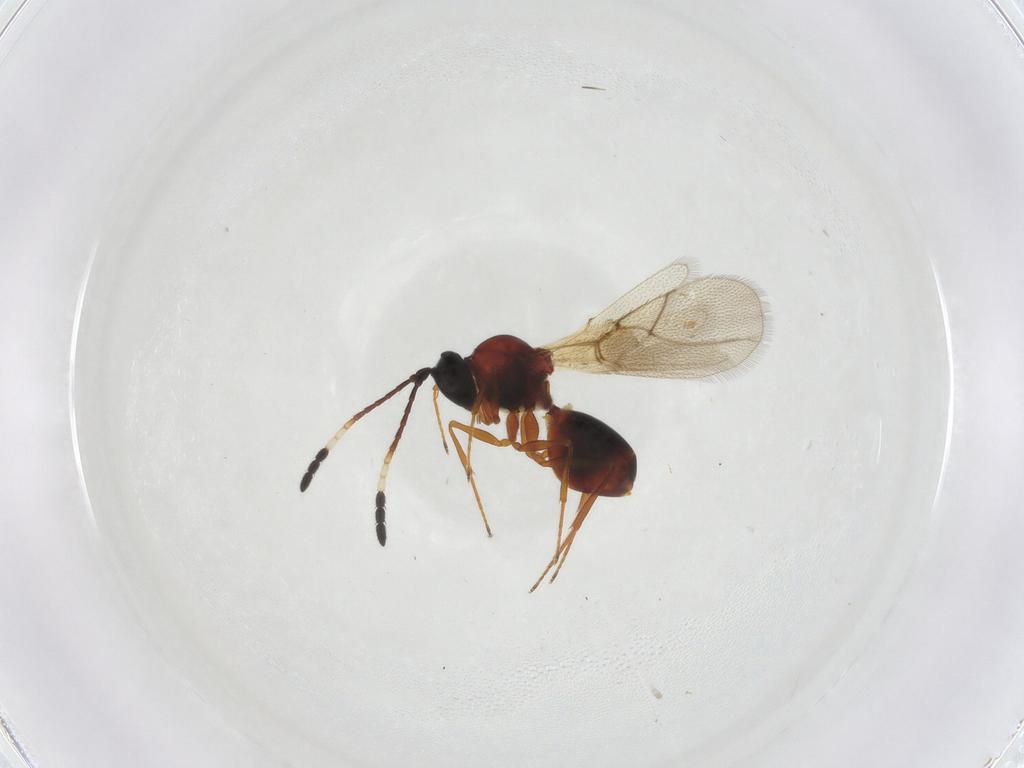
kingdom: Animalia
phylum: Arthropoda
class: Insecta
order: Hymenoptera
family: Figitidae
